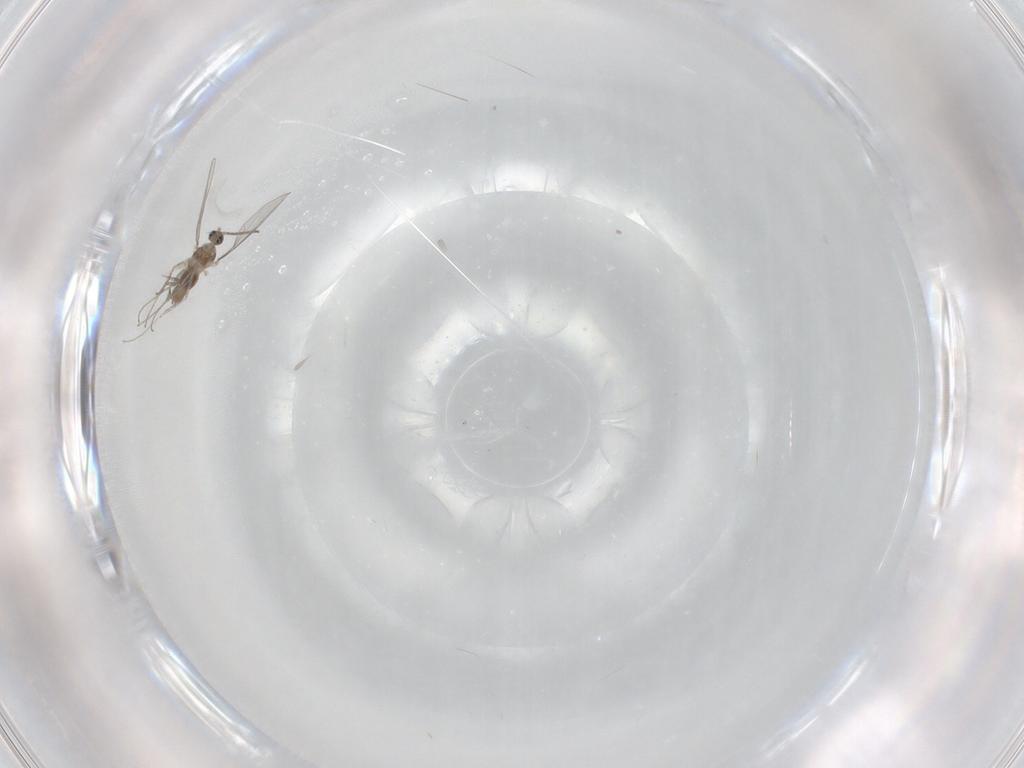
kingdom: Animalia
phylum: Arthropoda
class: Insecta
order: Diptera
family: Cecidomyiidae
